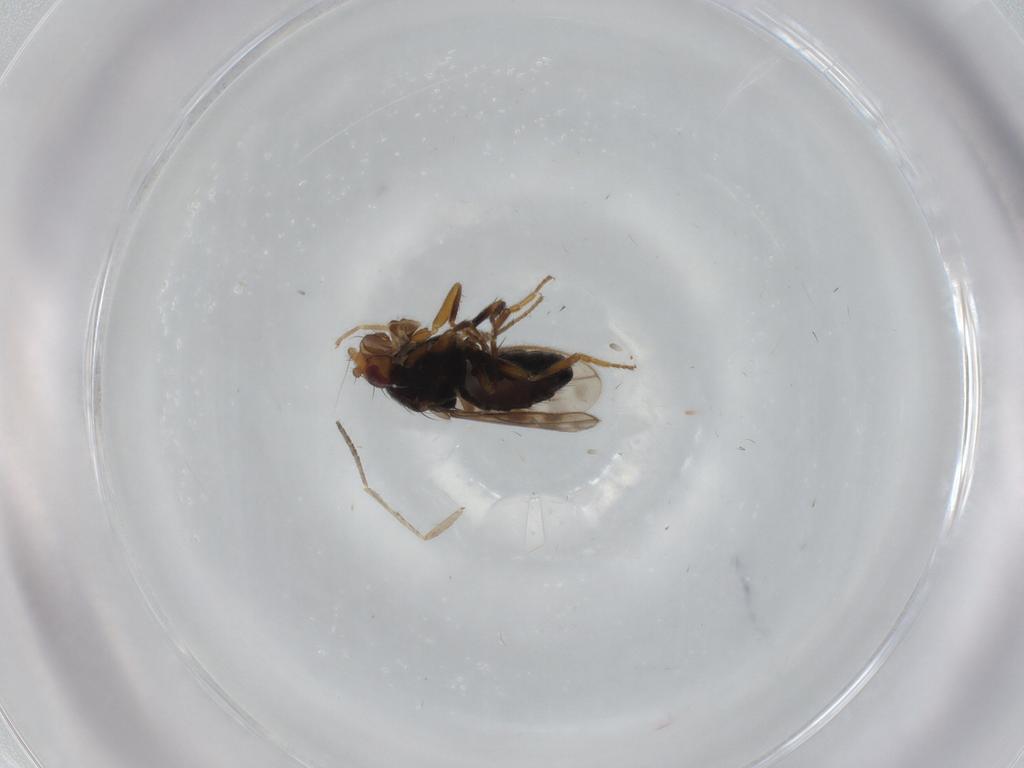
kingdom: Animalia
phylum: Arthropoda
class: Insecta
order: Diptera
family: Sphaeroceridae
